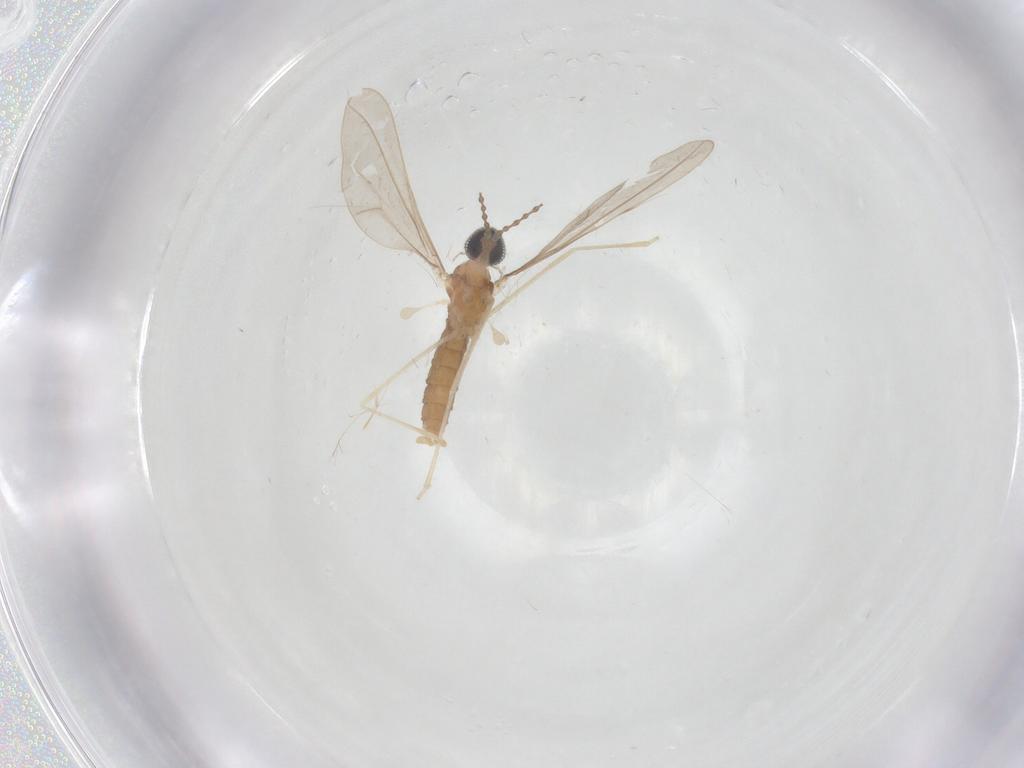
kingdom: Animalia
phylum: Arthropoda
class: Insecta
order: Diptera
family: Cecidomyiidae
